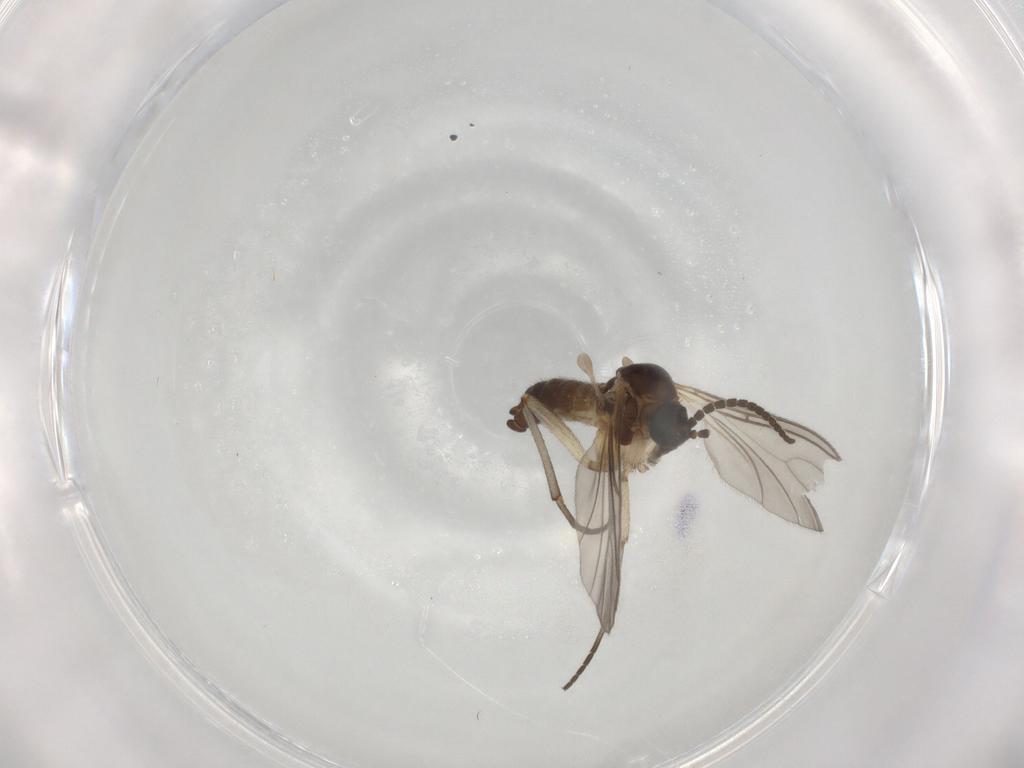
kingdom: Animalia
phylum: Arthropoda
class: Insecta
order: Diptera
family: Sciaridae
